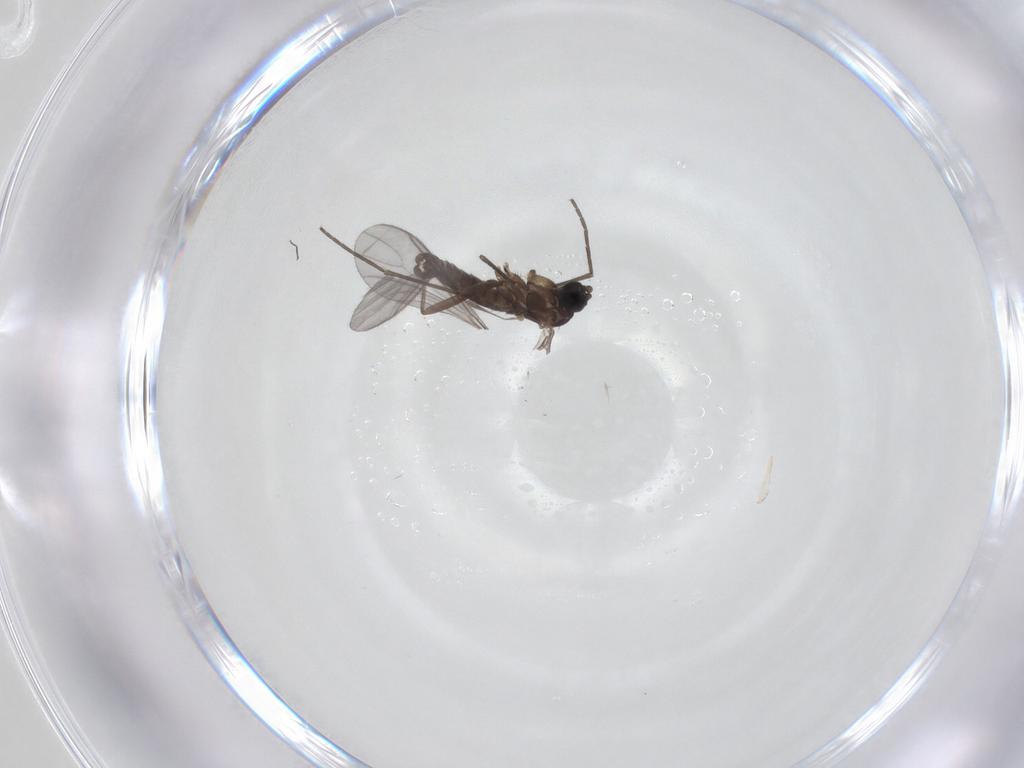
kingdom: Animalia
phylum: Arthropoda
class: Insecta
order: Diptera
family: Sciaridae
